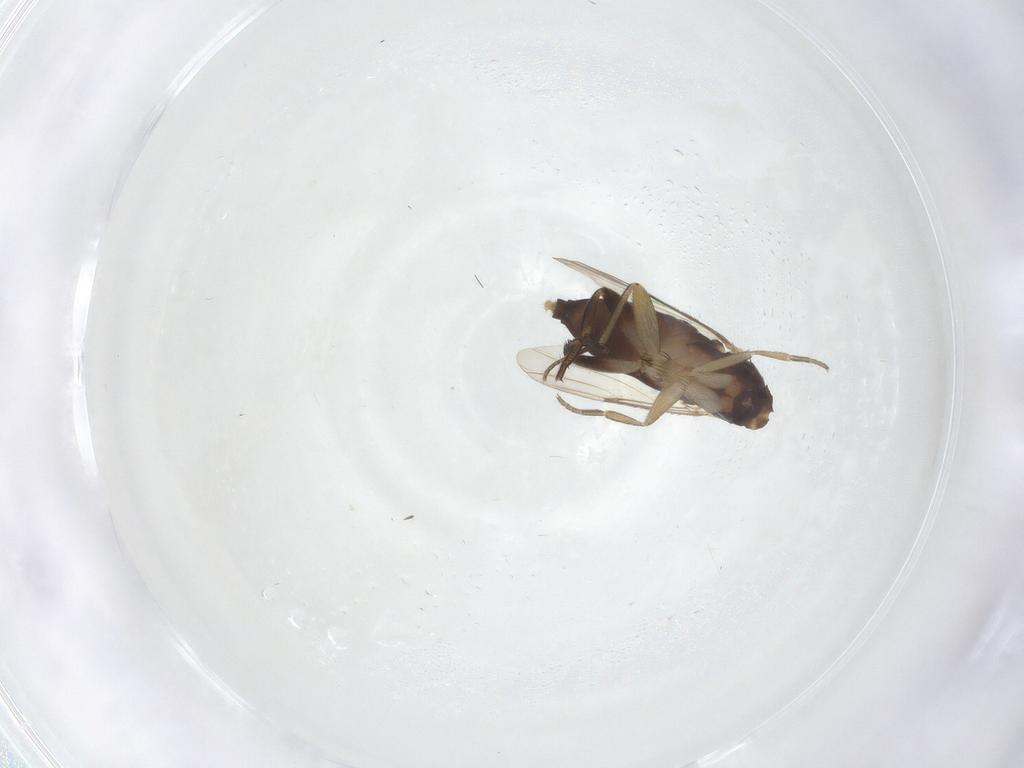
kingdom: Animalia
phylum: Arthropoda
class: Insecta
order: Diptera
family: Phoridae
